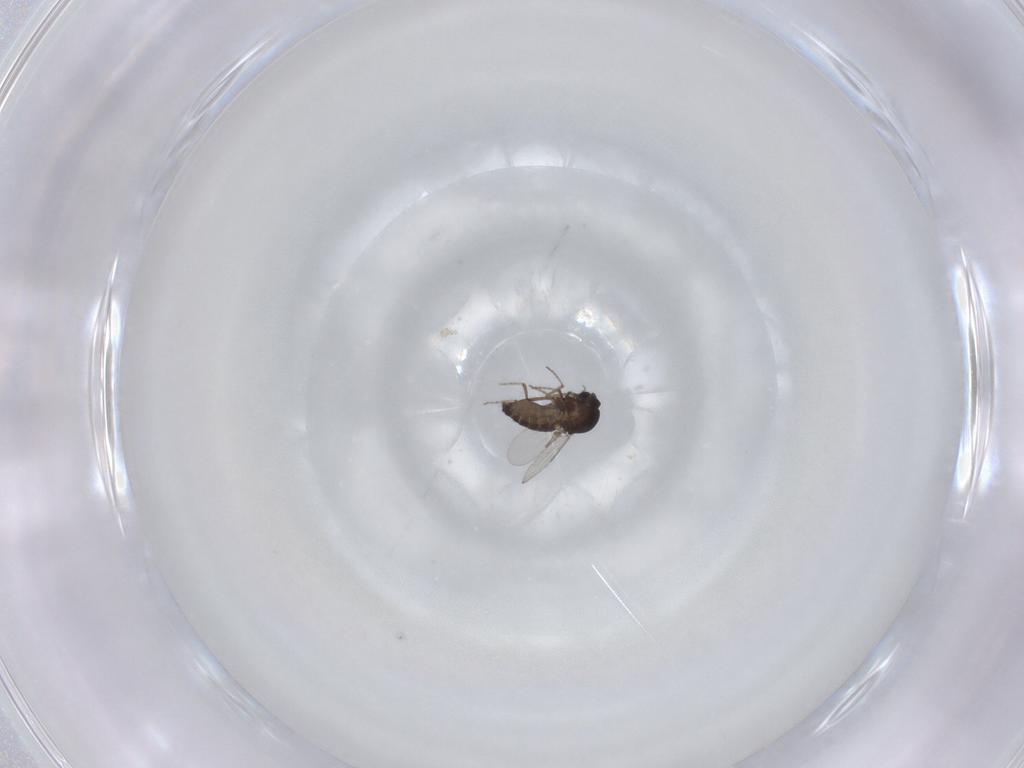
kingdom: Animalia
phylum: Arthropoda
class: Insecta
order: Diptera
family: Ceratopogonidae
